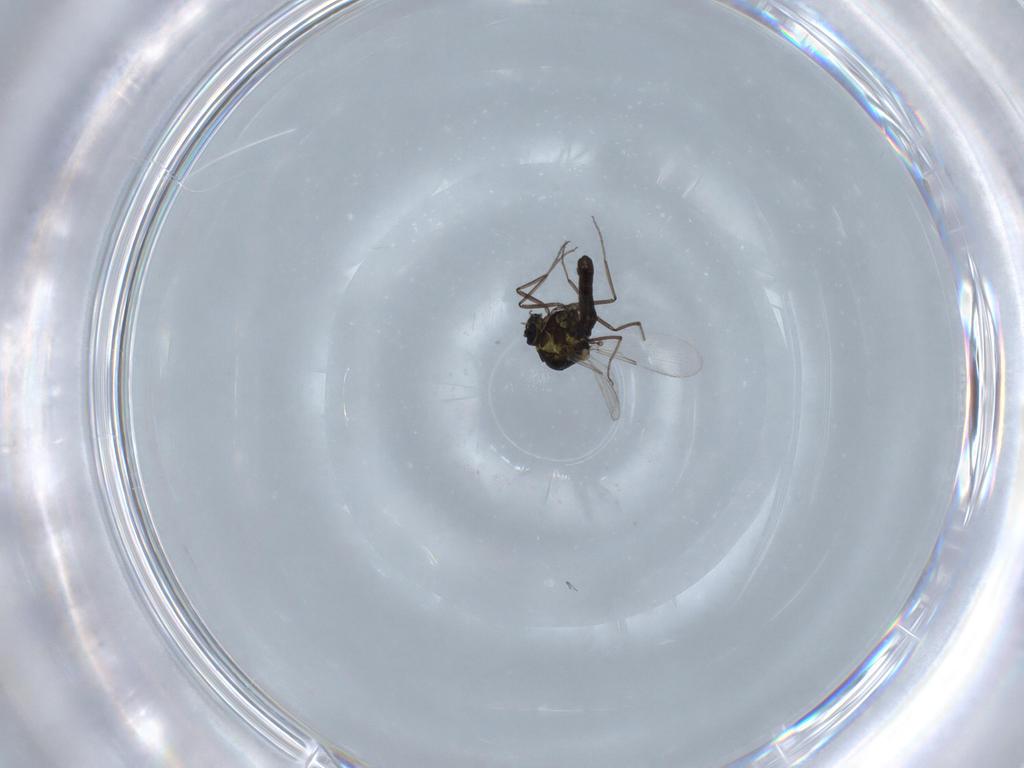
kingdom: Animalia
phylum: Arthropoda
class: Insecta
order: Diptera
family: Ceratopogonidae
